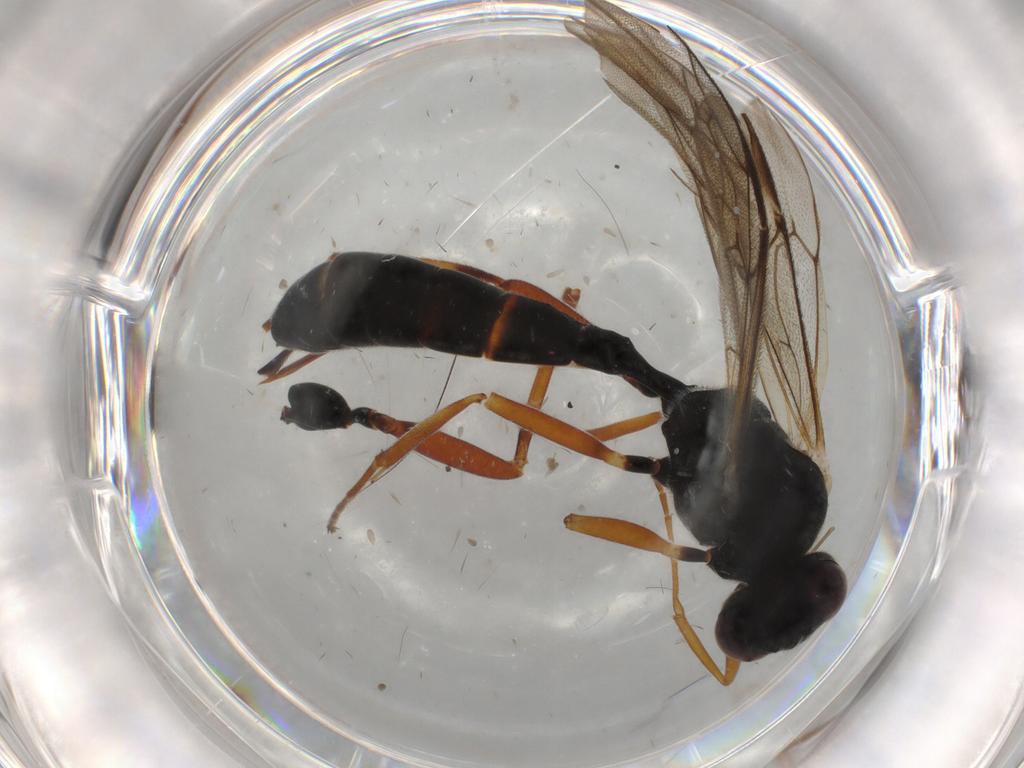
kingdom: Animalia
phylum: Arthropoda
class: Insecta
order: Hymenoptera
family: Ichneumonidae
